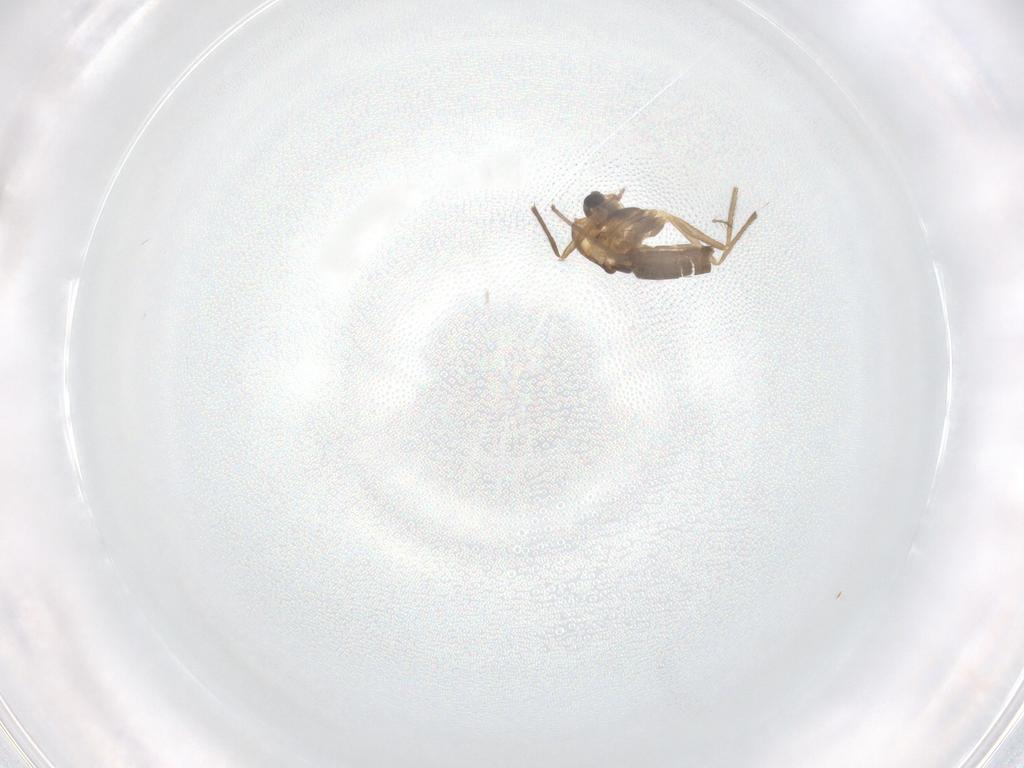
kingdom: Animalia
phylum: Arthropoda
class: Insecta
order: Diptera
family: Chironomidae
